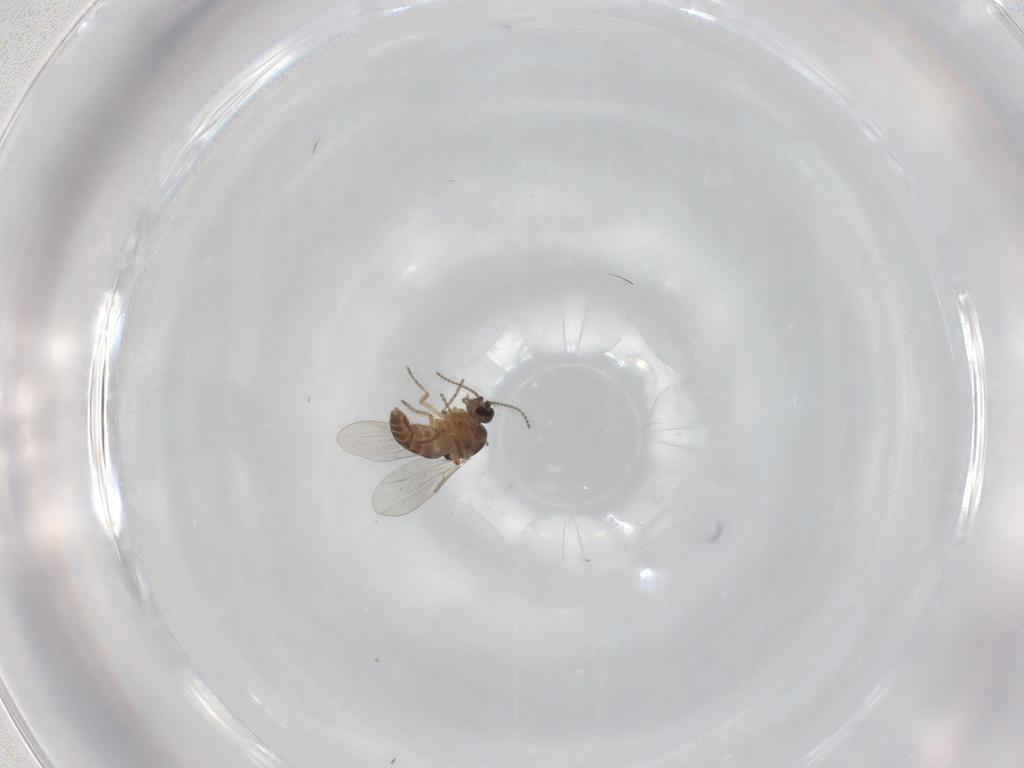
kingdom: Animalia
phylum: Arthropoda
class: Insecta
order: Diptera
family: Ceratopogonidae
